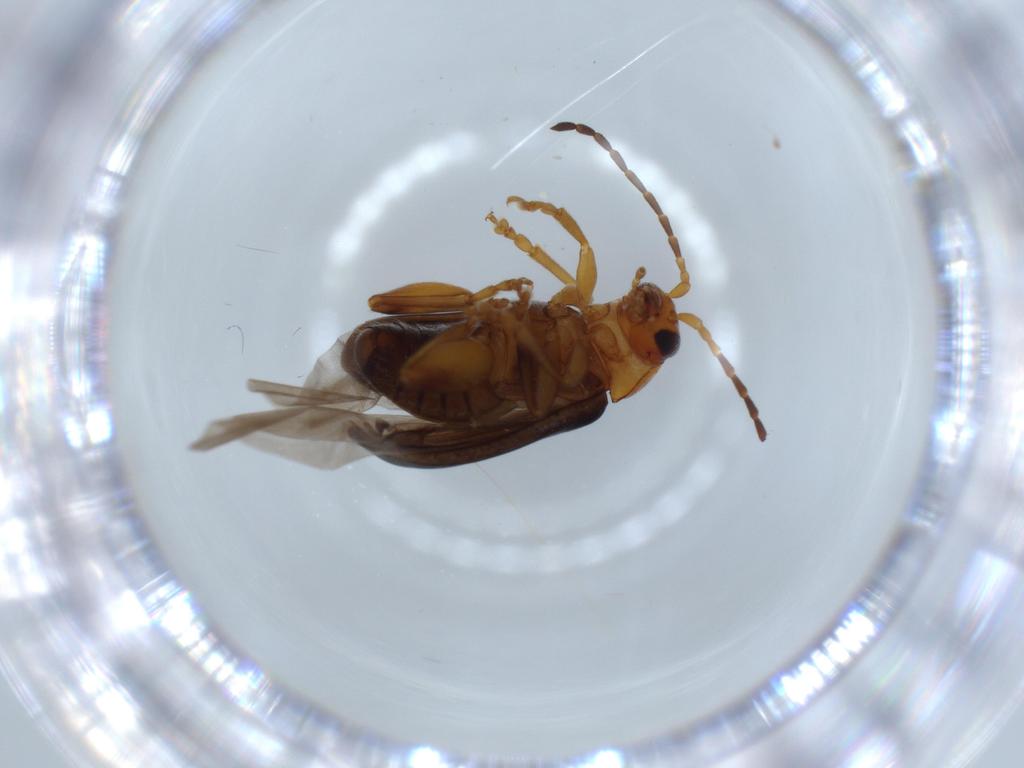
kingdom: Animalia
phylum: Arthropoda
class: Insecta
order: Coleoptera
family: Chrysomelidae
